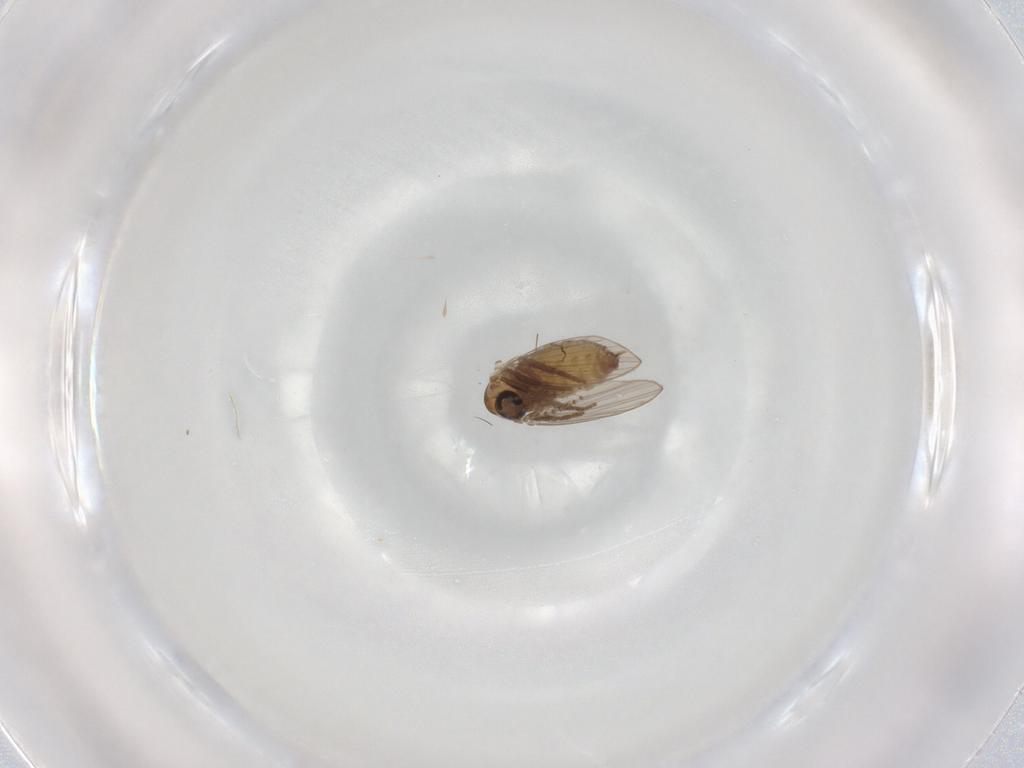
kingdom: Animalia
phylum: Arthropoda
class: Insecta
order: Diptera
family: Psychodidae
